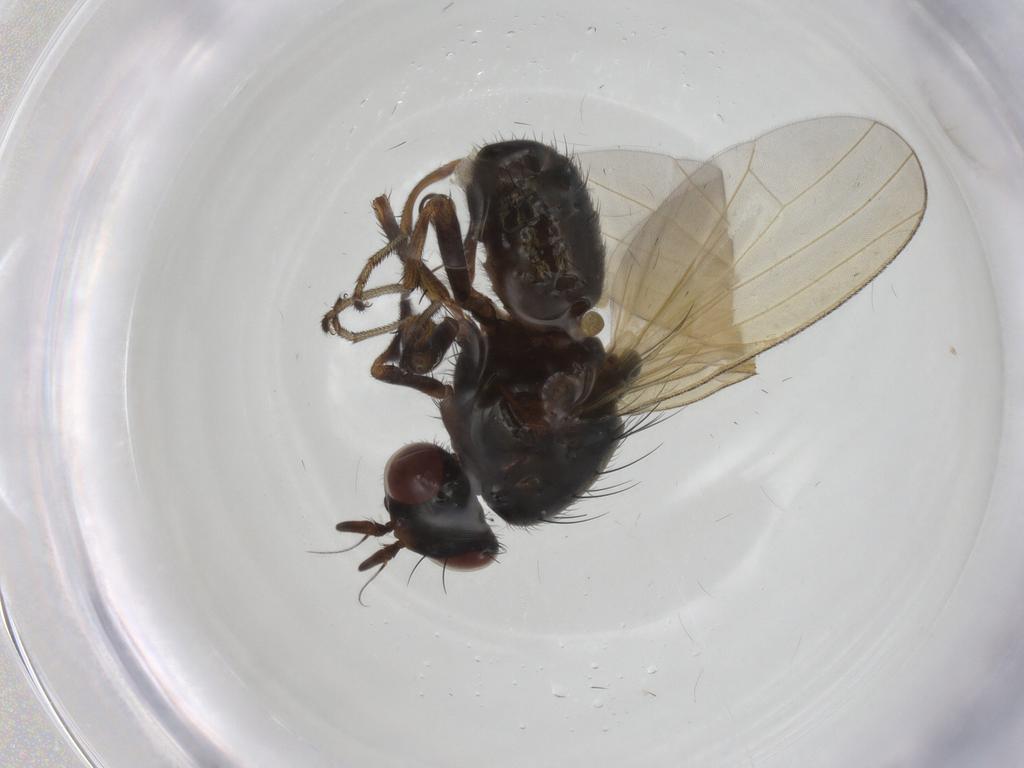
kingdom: Animalia
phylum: Arthropoda
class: Insecta
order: Diptera
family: Lauxaniidae
